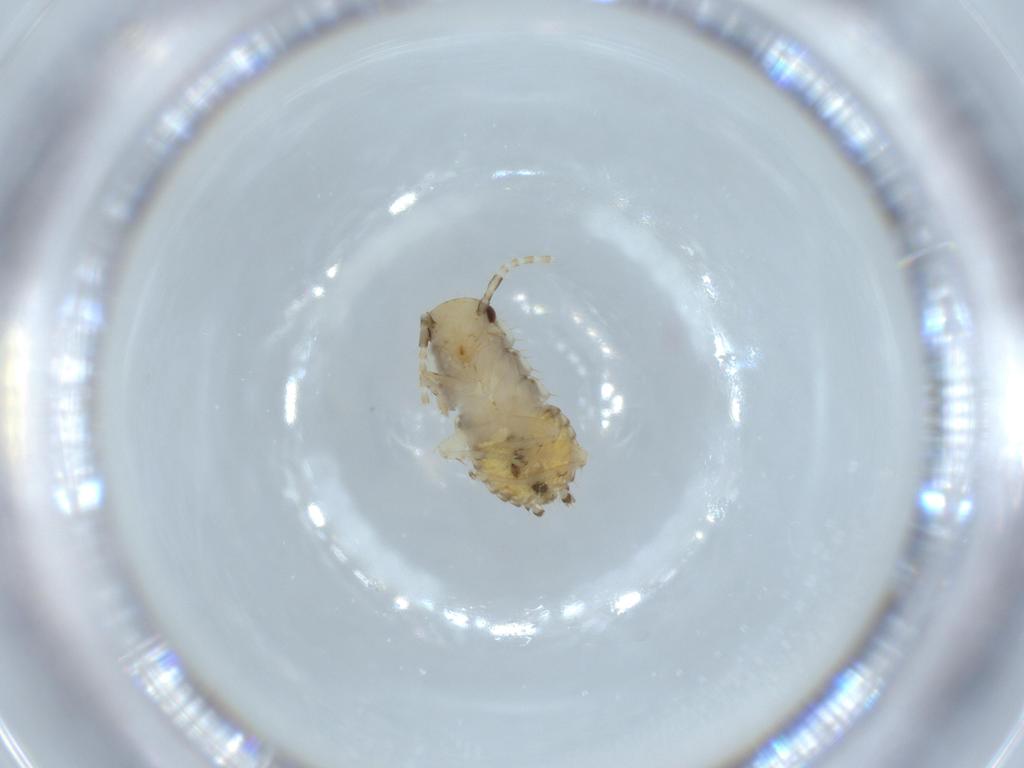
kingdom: Animalia
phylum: Arthropoda
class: Insecta
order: Blattodea
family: Ectobiidae
